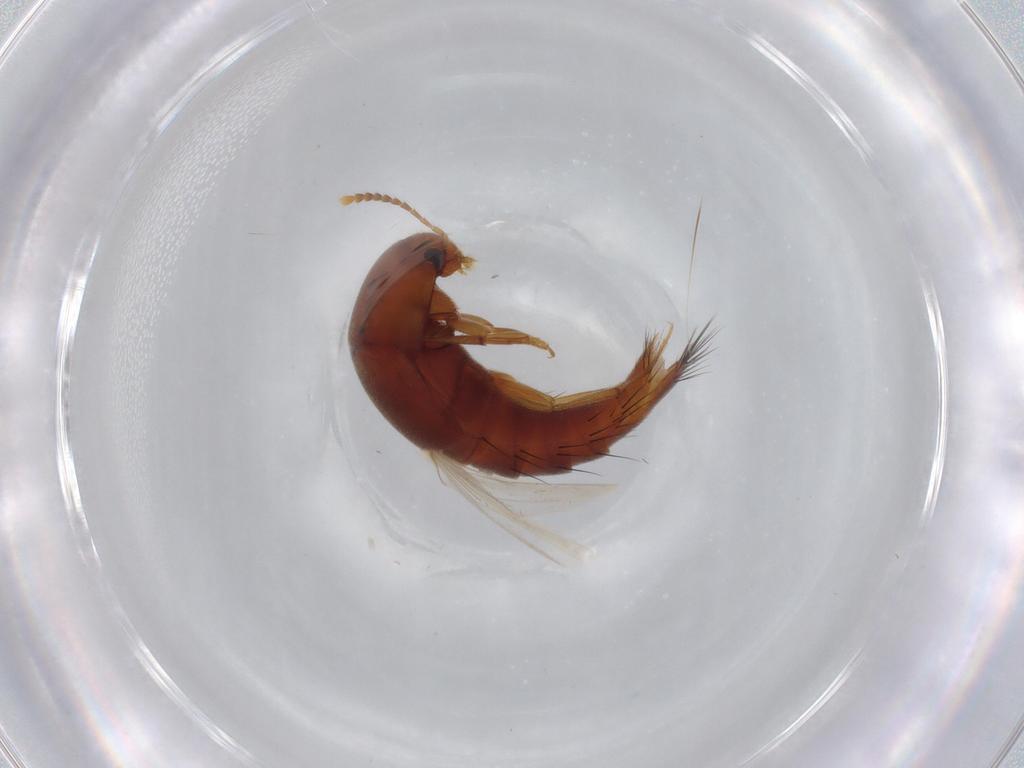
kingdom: Animalia
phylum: Arthropoda
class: Insecta
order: Coleoptera
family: Staphylinidae
